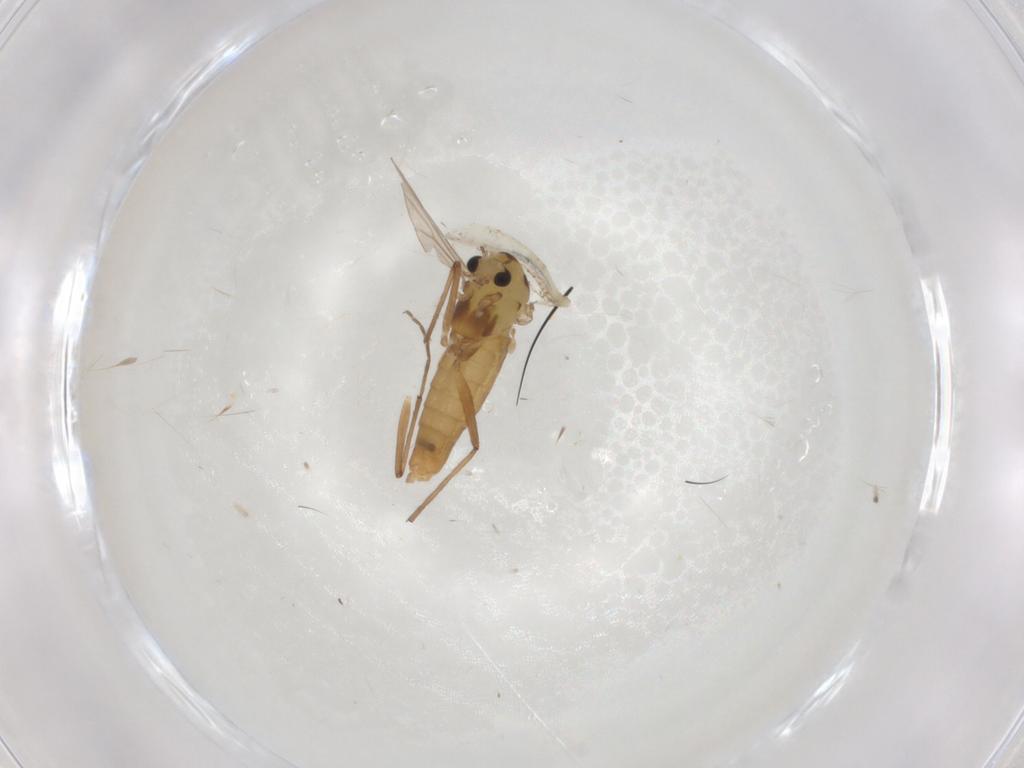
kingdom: Animalia
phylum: Arthropoda
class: Insecta
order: Diptera
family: Chironomidae
